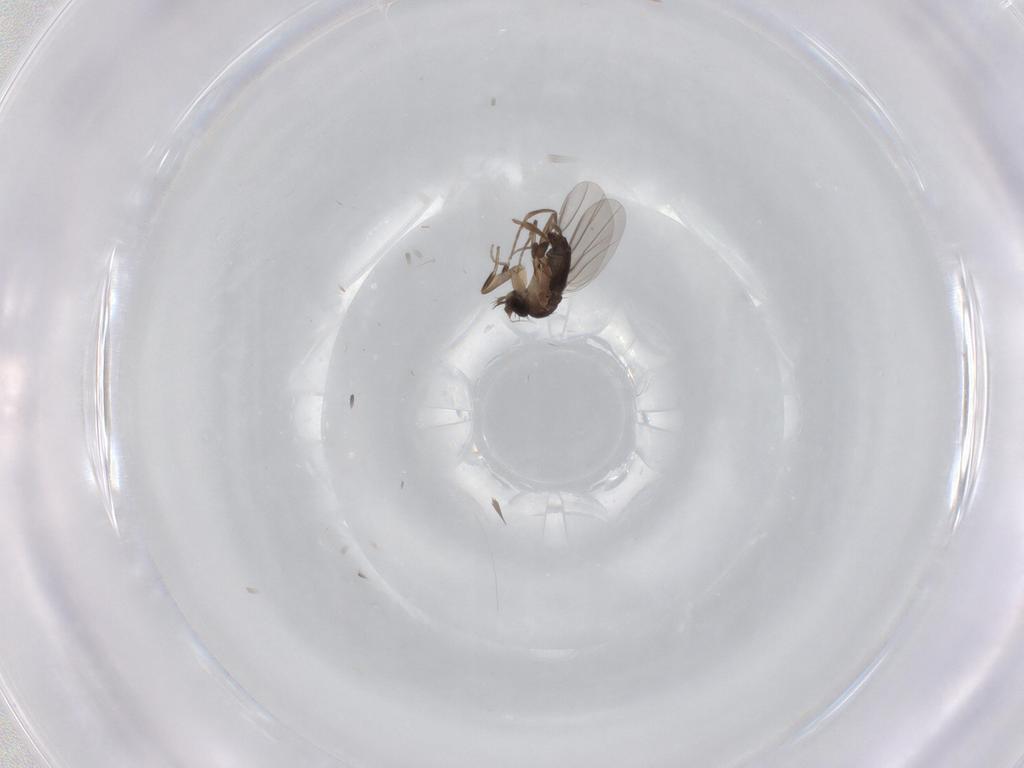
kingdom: Animalia
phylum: Arthropoda
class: Insecta
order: Diptera
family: Phoridae
